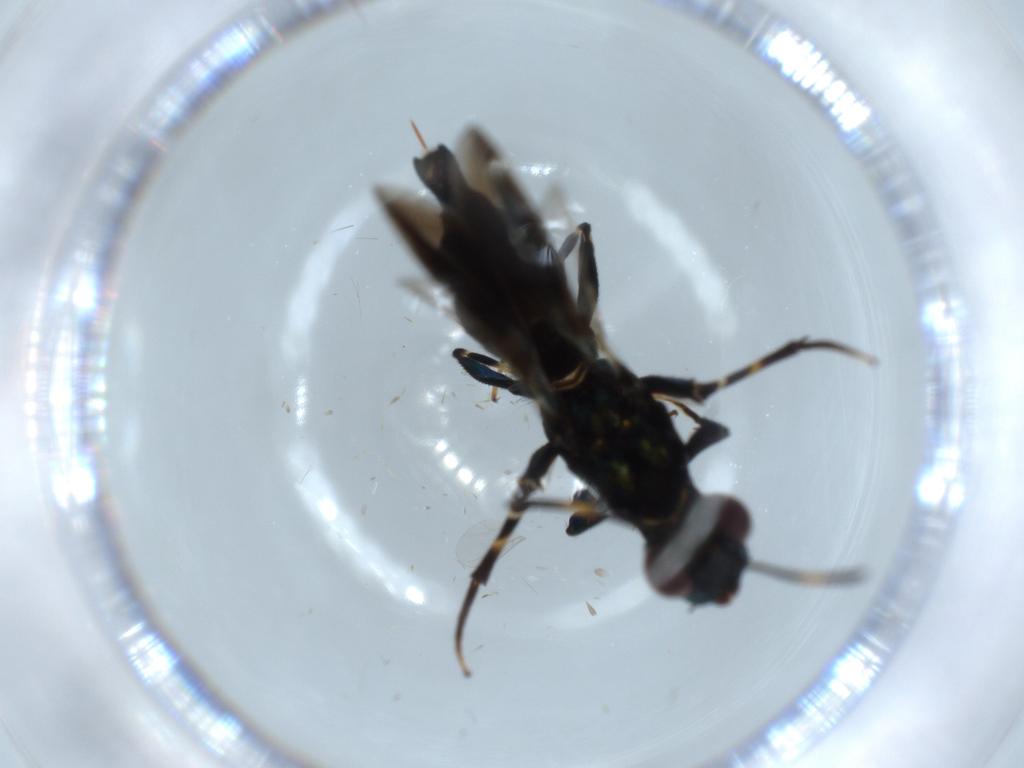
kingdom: Animalia
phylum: Arthropoda
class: Insecta
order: Hymenoptera
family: Eupelmidae
